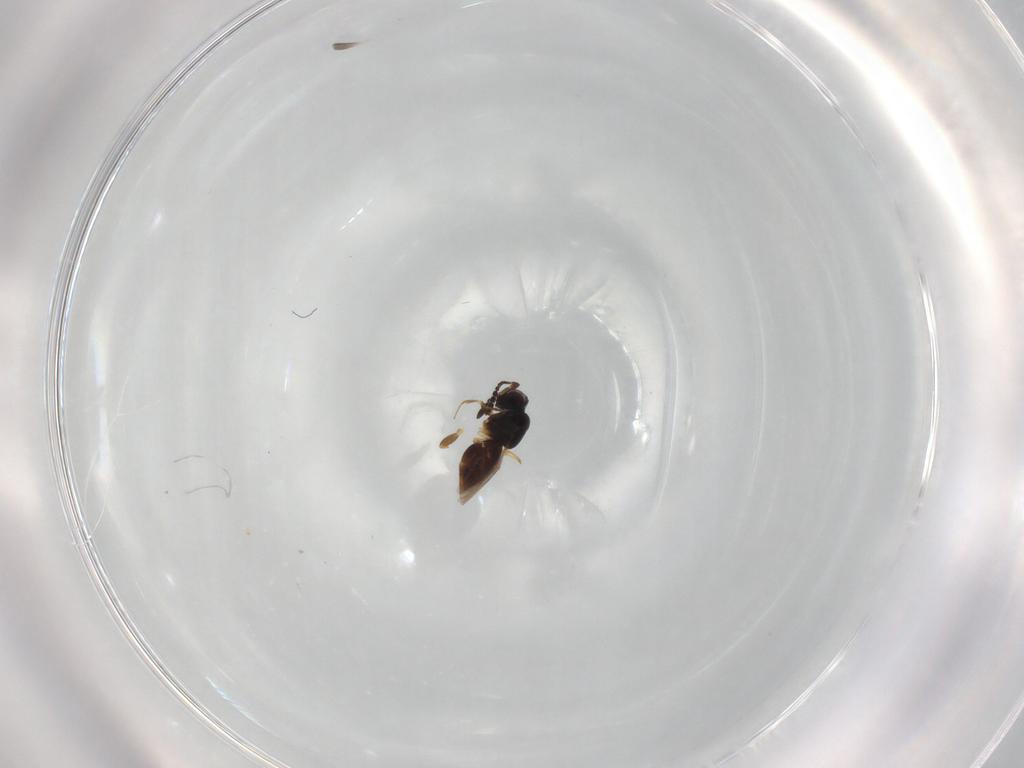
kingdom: Animalia
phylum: Arthropoda
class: Insecta
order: Hymenoptera
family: Scelionidae
